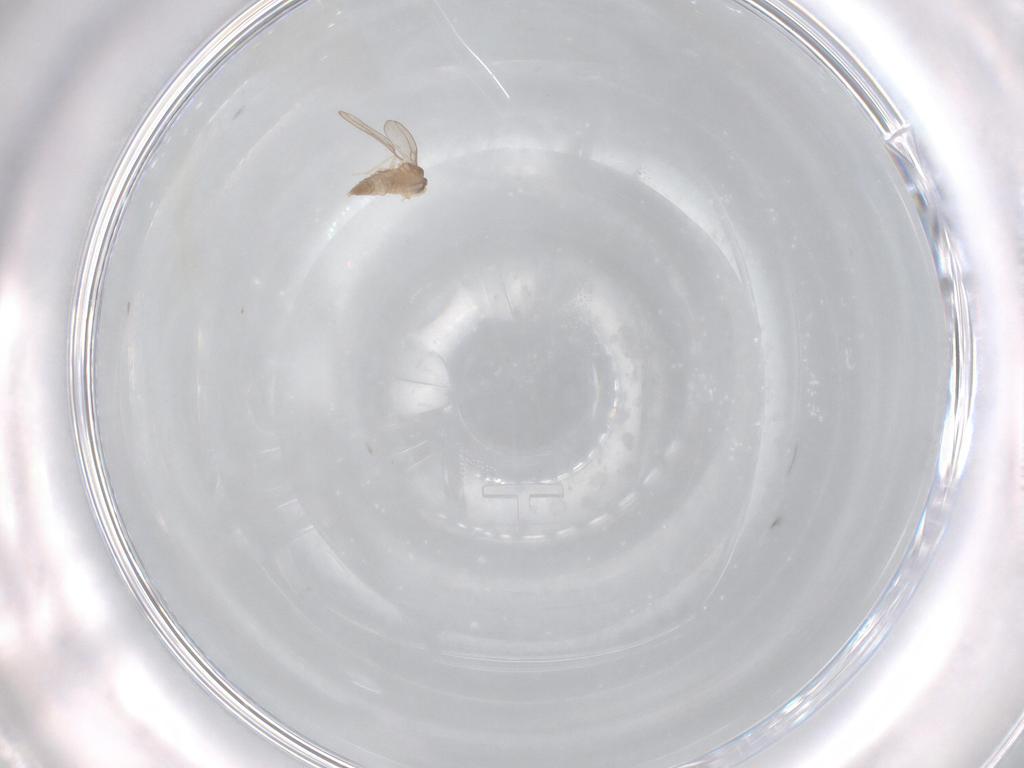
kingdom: Animalia
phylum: Arthropoda
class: Insecta
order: Diptera
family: Cecidomyiidae
